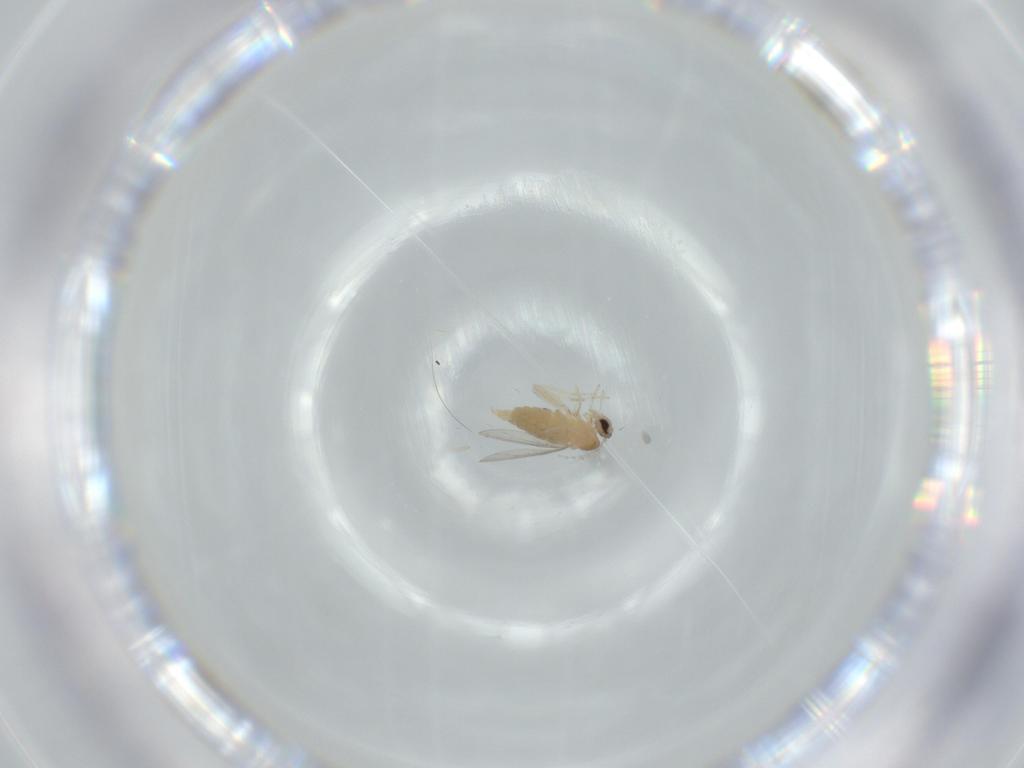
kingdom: Animalia
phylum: Arthropoda
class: Insecta
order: Diptera
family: Cecidomyiidae
